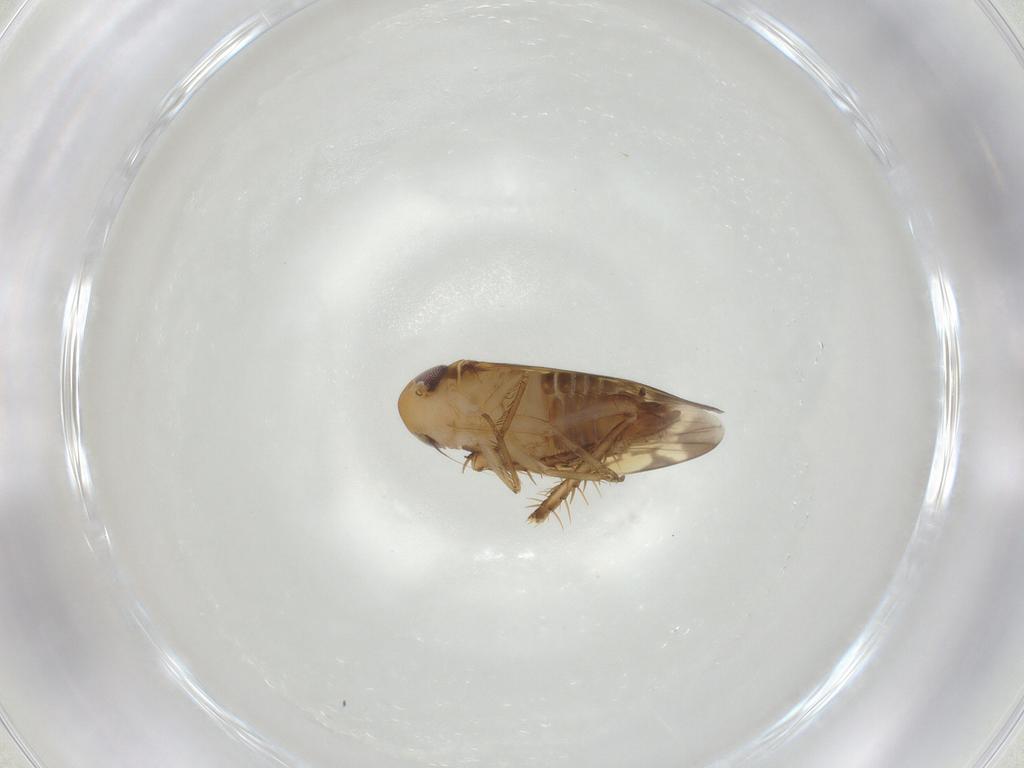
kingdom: Animalia
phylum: Arthropoda
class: Insecta
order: Hemiptera
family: Cicadellidae
